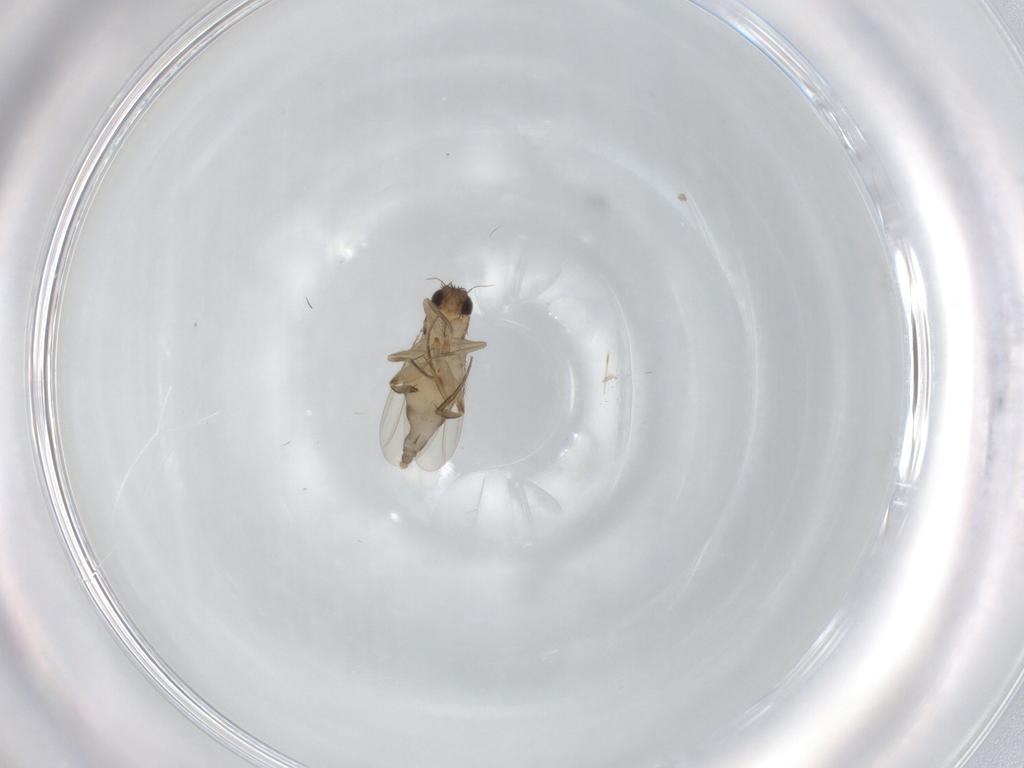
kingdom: Animalia
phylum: Arthropoda
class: Insecta
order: Diptera
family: Phoridae
